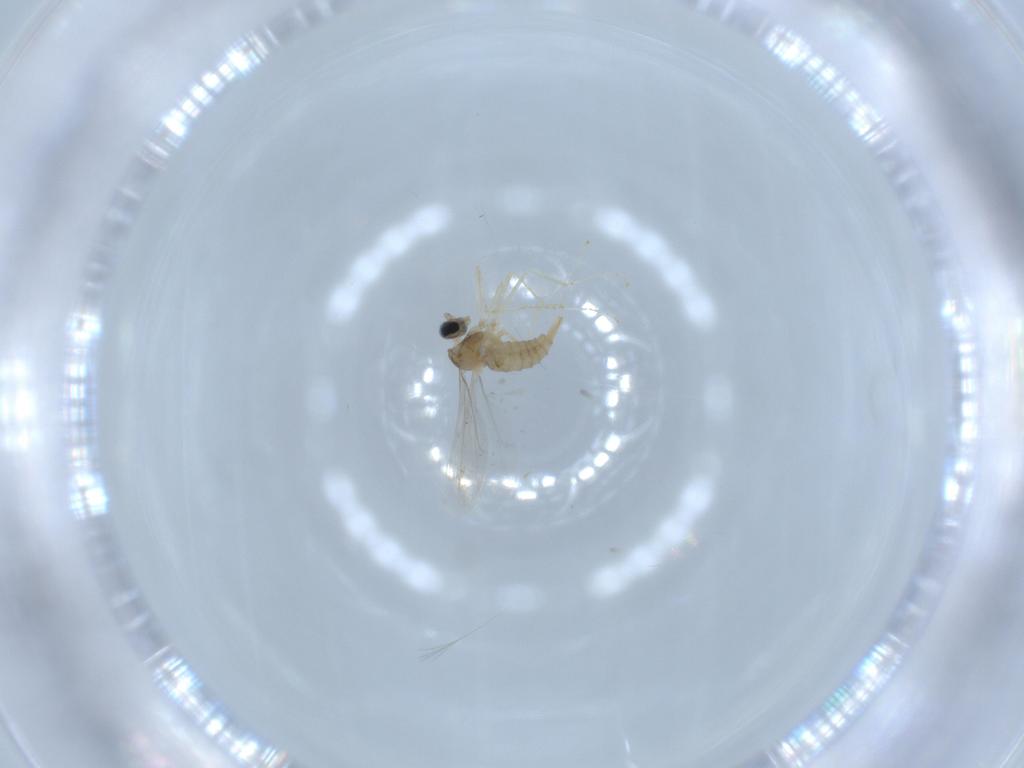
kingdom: Animalia
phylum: Arthropoda
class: Insecta
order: Diptera
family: Cecidomyiidae
